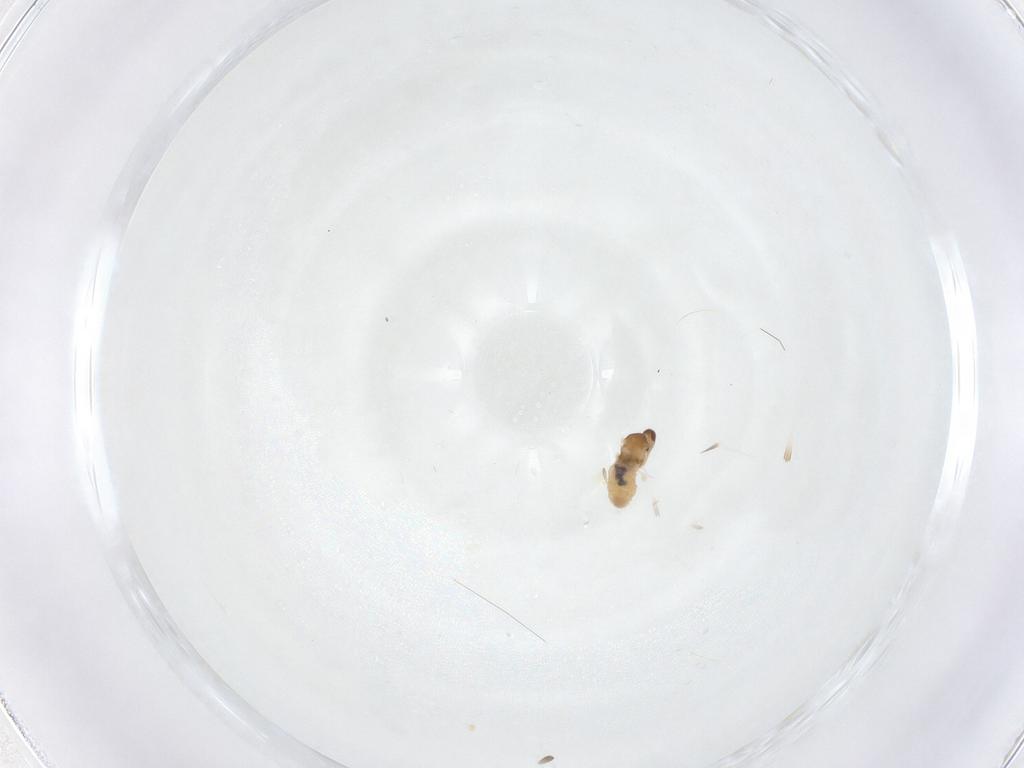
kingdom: Animalia
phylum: Arthropoda
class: Insecta
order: Diptera
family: Cecidomyiidae
